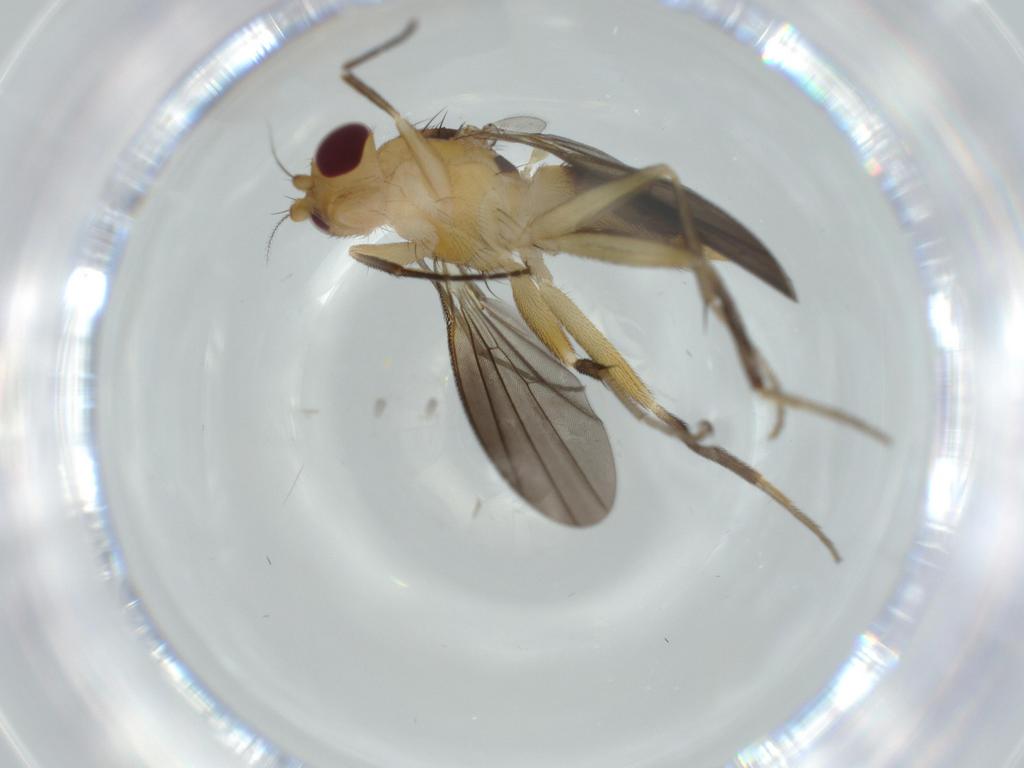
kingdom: Animalia
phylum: Arthropoda
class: Insecta
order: Diptera
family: Clusiidae
